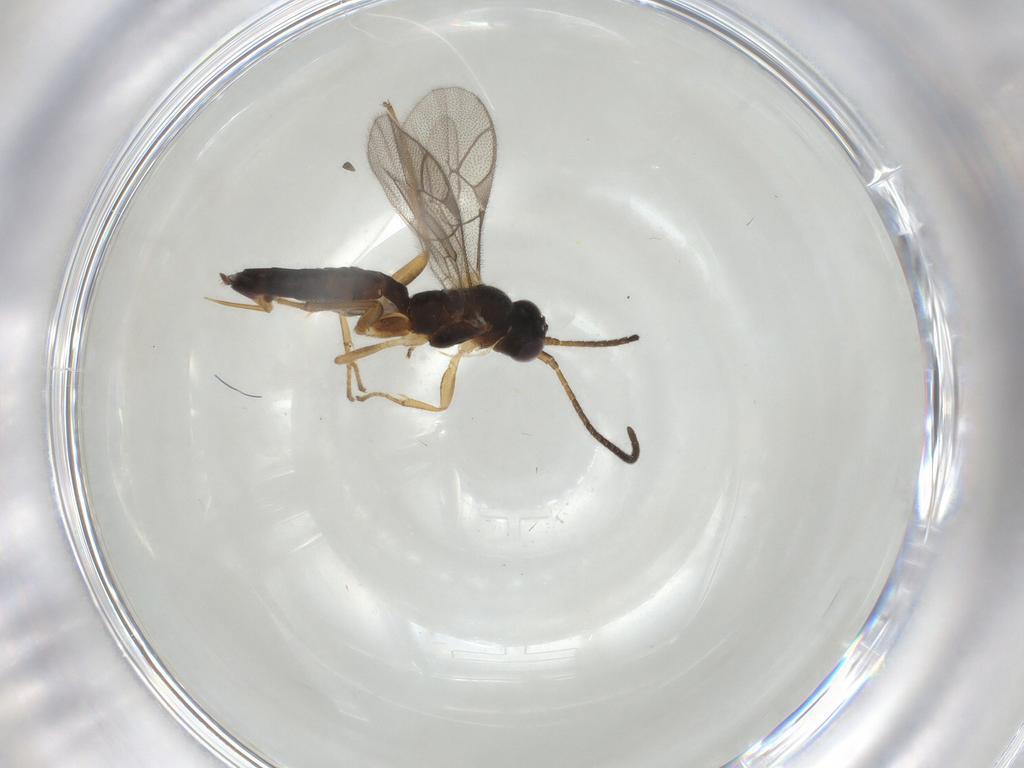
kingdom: Animalia
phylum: Arthropoda
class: Insecta
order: Hymenoptera
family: Ichneumonidae
